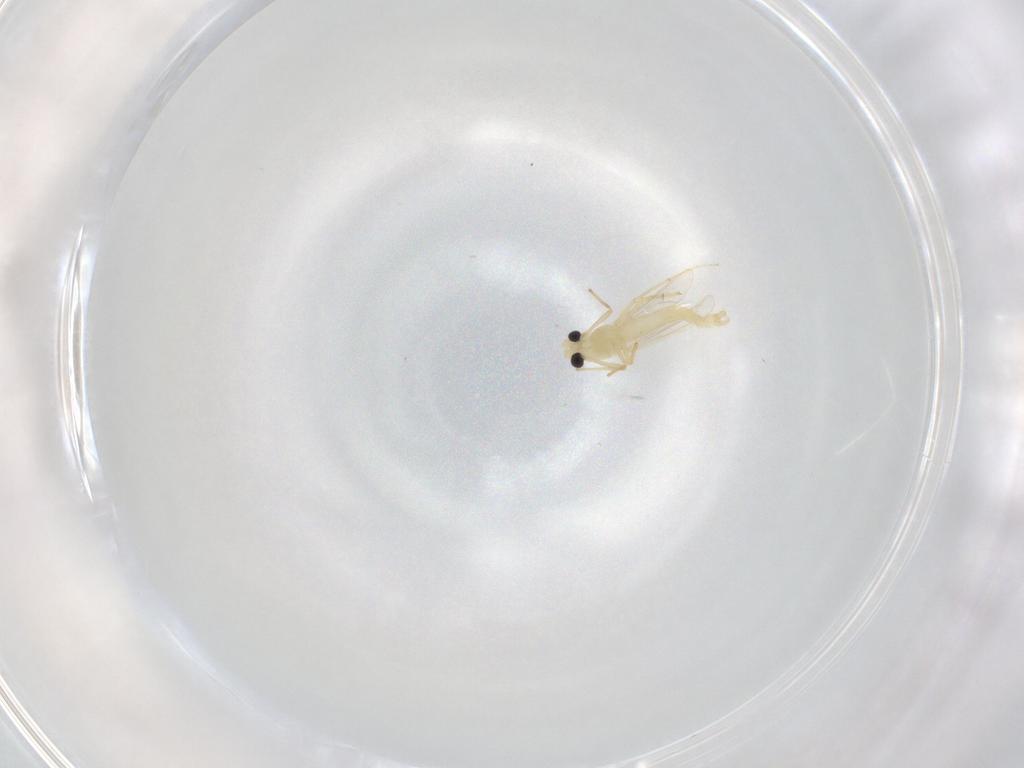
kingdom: Animalia
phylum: Arthropoda
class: Insecta
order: Diptera
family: Chironomidae
